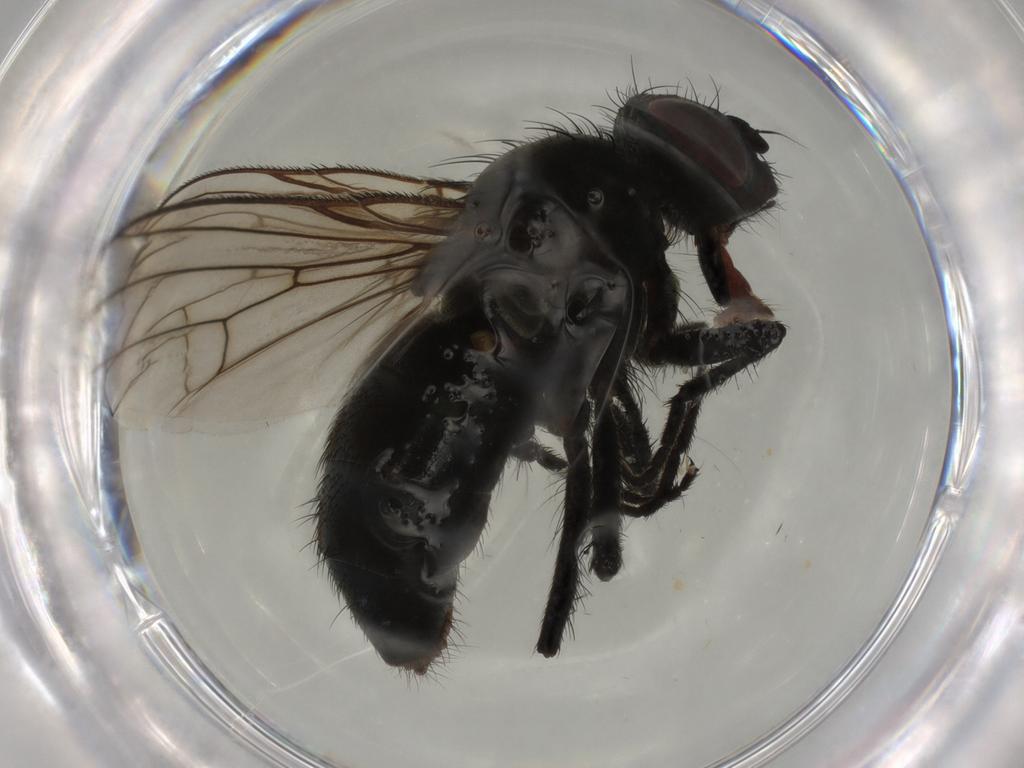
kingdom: Animalia
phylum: Arthropoda
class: Insecta
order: Diptera
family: Muscidae
